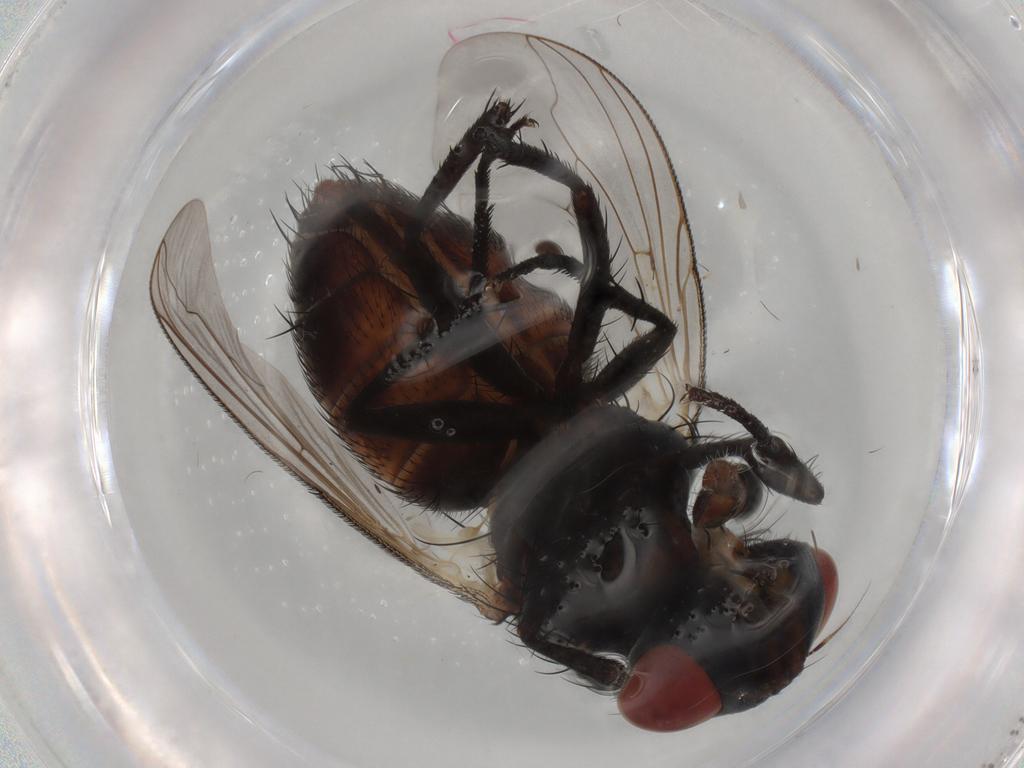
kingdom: Animalia
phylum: Arthropoda
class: Insecta
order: Diptera
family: Sarcophagidae
